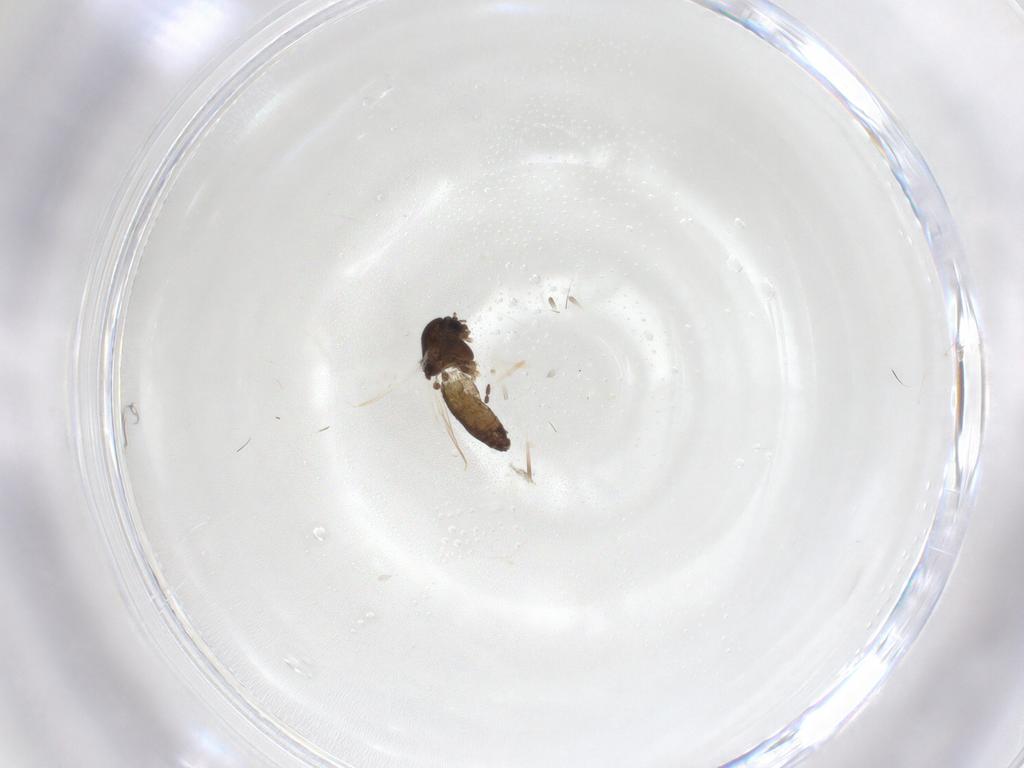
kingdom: Animalia
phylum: Arthropoda
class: Insecta
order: Diptera
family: Chironomidae
